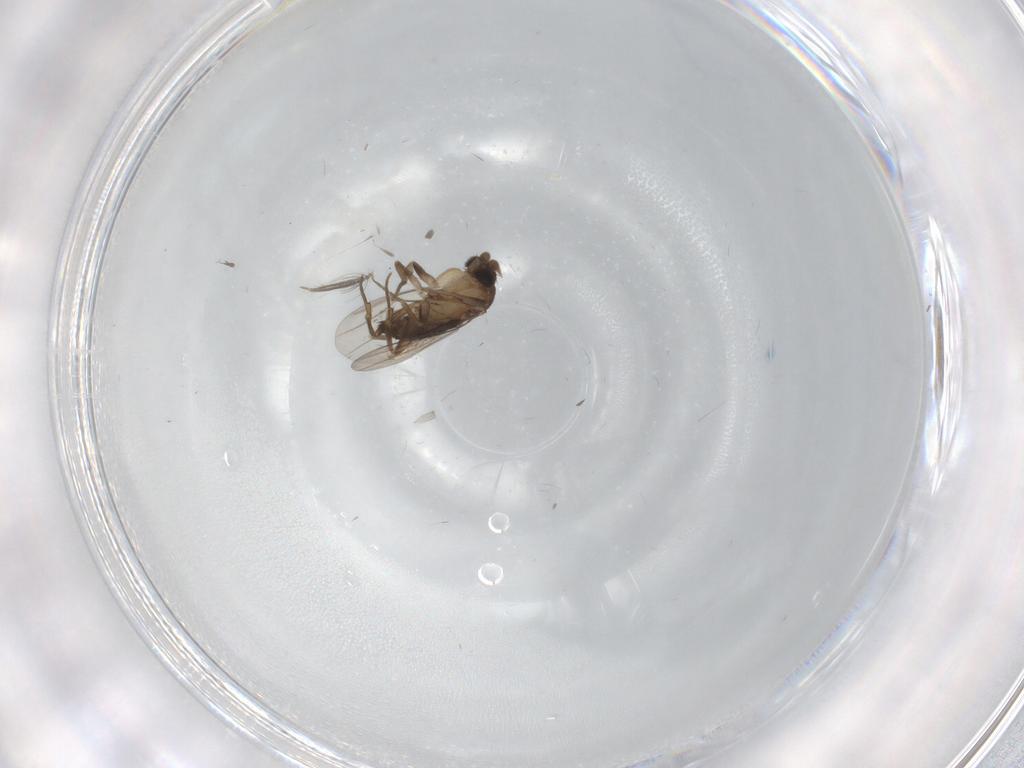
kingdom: Animalia
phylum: Arthropoda
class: Insecta
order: Diptera
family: Phoridae
